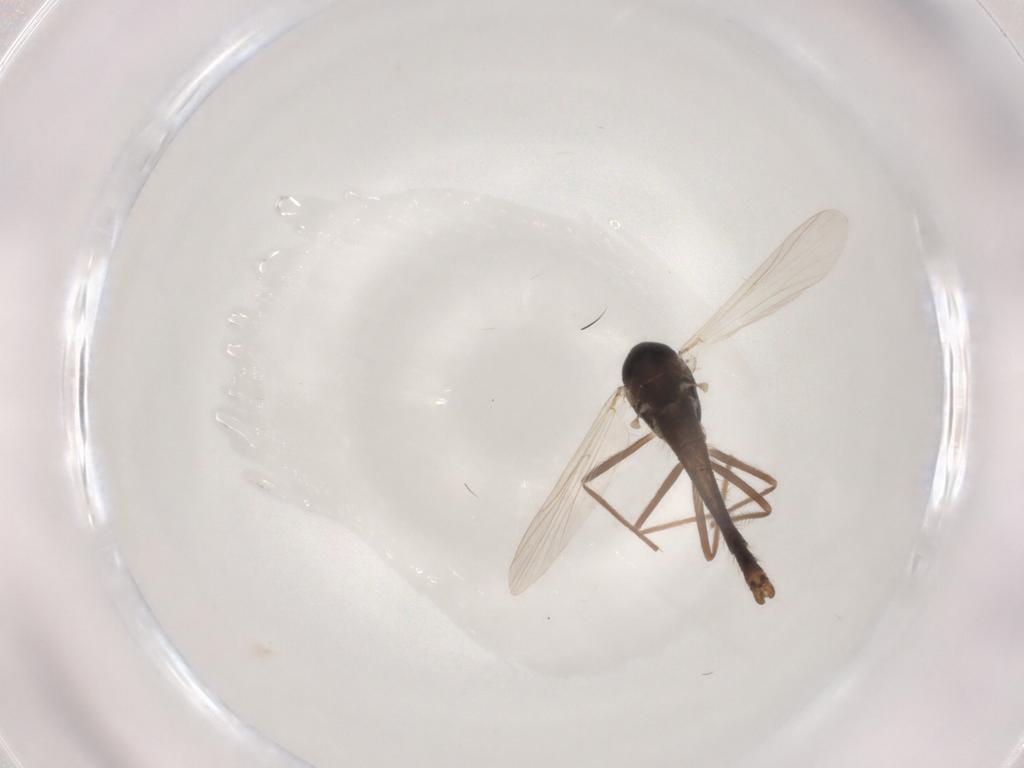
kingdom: Animalia
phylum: Arthropoda
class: Insecta
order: Diptera
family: Chironomidae
